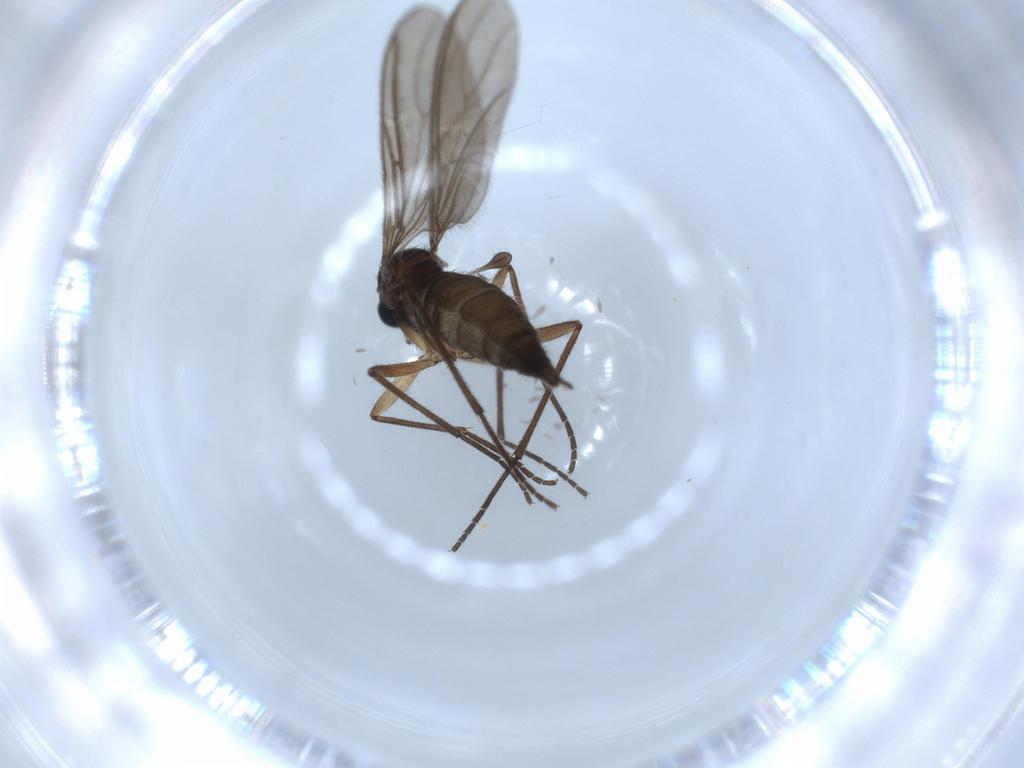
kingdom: Animalia
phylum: Arthropoda
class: Insecta
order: Diptera
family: Sciaridae
